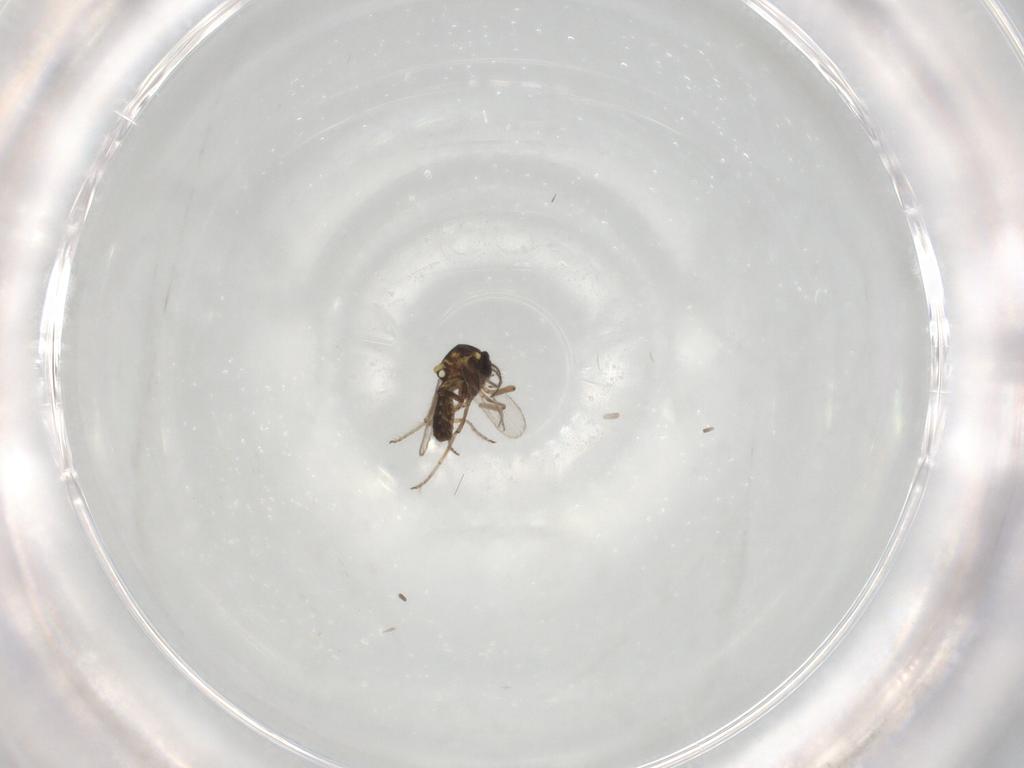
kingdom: Animalia
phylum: Arthropoda
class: Insecta
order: Diptera
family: Ceratopogonidae
